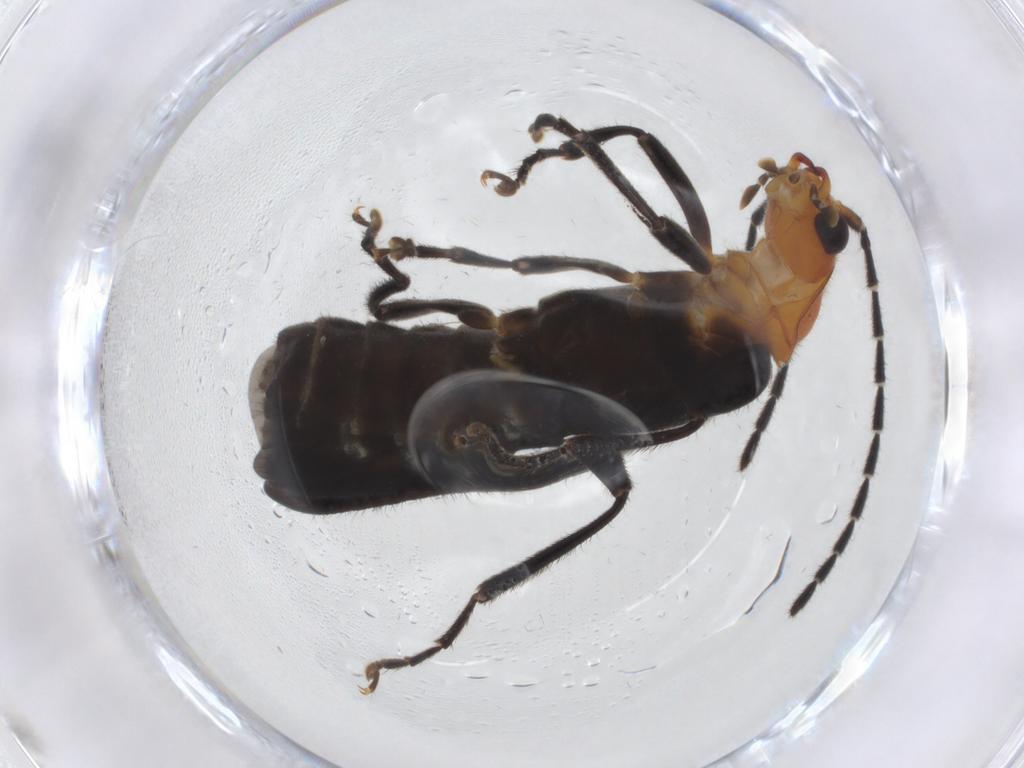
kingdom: Animalia
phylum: Arthropoda
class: Insecta
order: Coleoptera
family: Cantharidae
